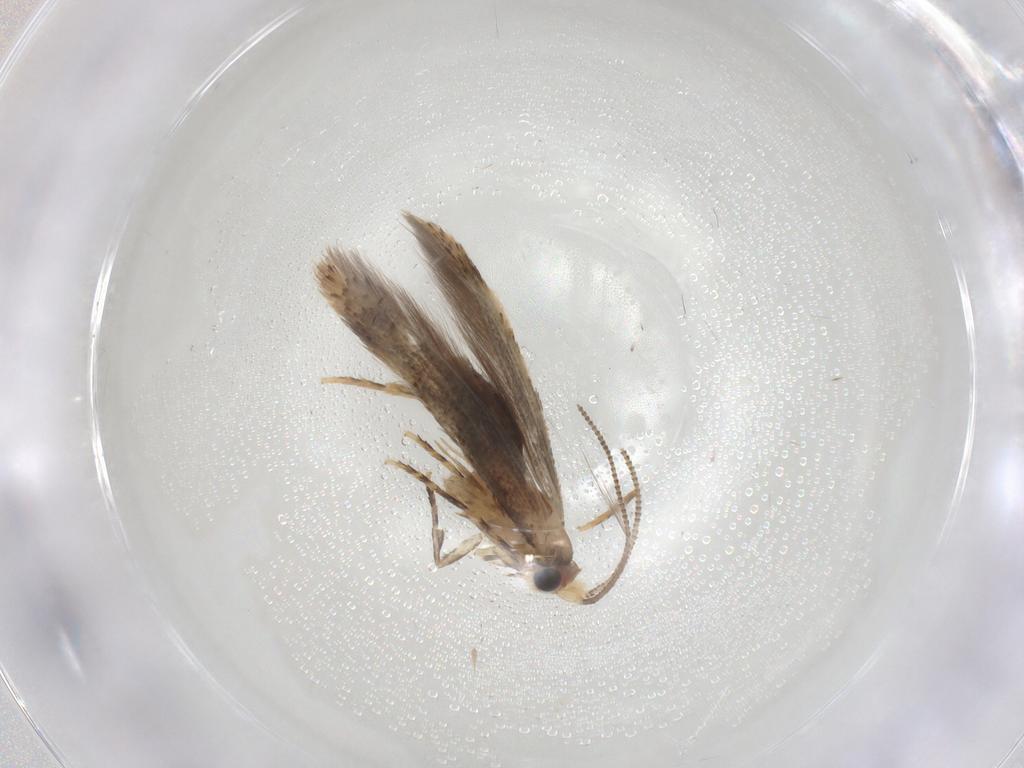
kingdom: Animalia
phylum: Arthropoda
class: Insecta
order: Lepidoptera
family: Tineidae
